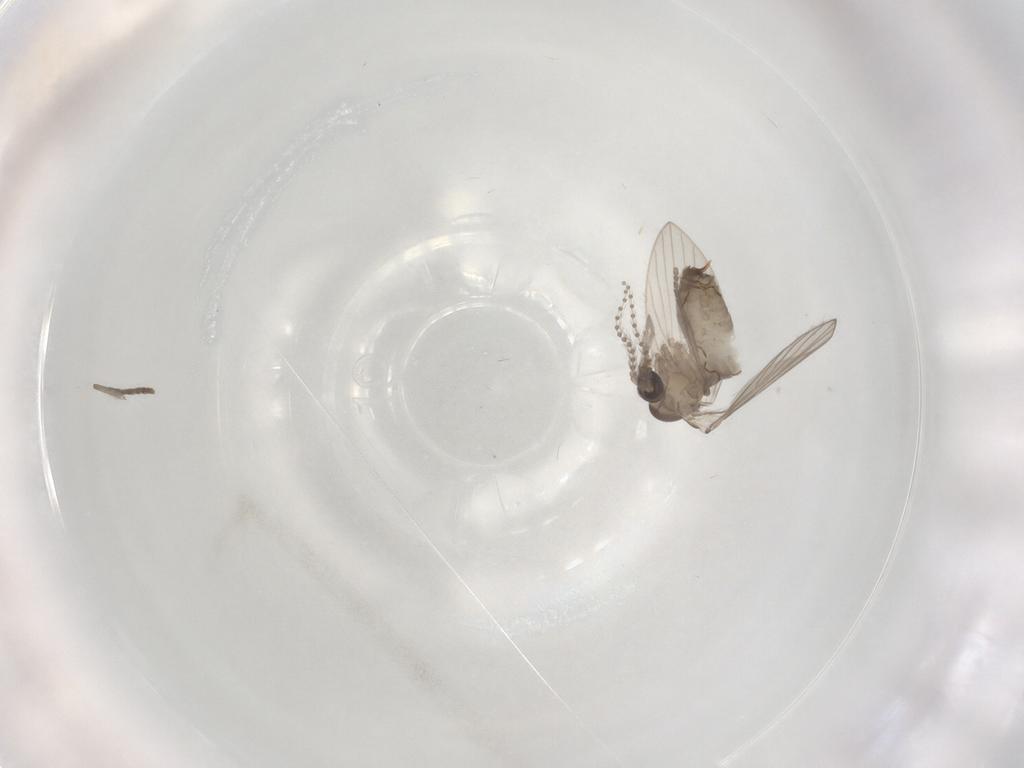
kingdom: Animalia
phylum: Arthropoda
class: Insecta
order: Diptera
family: Psychodidae
